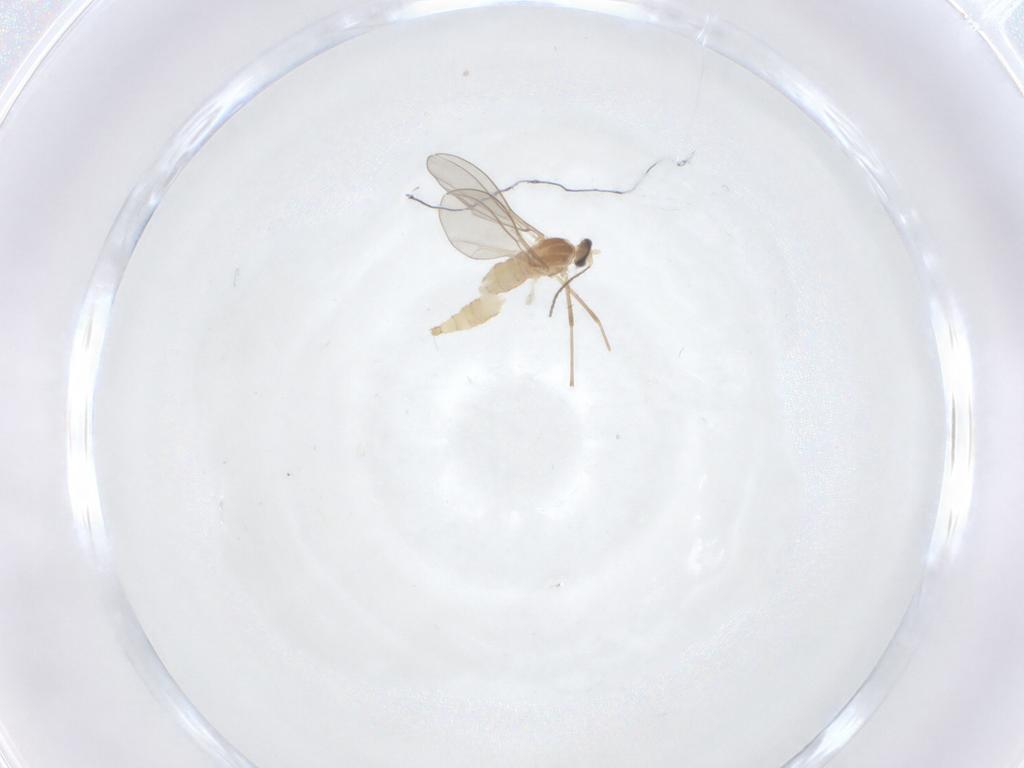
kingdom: Animalia
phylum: Arthropoda
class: Insecta
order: Diptera
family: Cecidomyiidae
